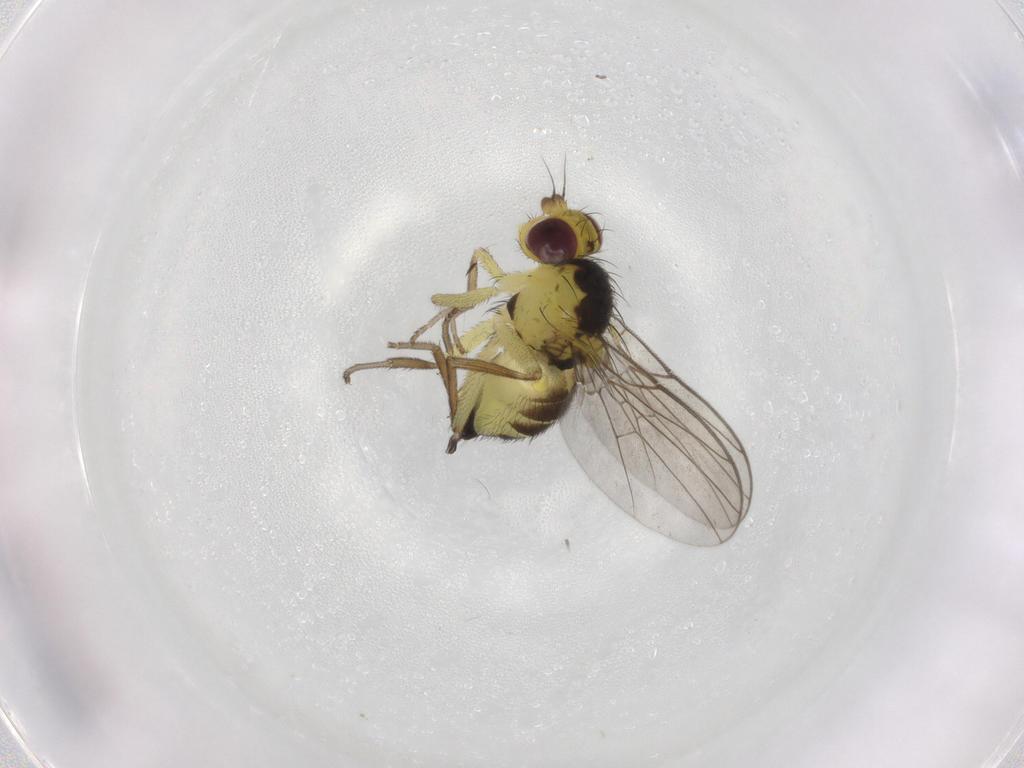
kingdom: Animalia
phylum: Arthropoda
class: Insecta
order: Diptera
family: Agromyzidae
